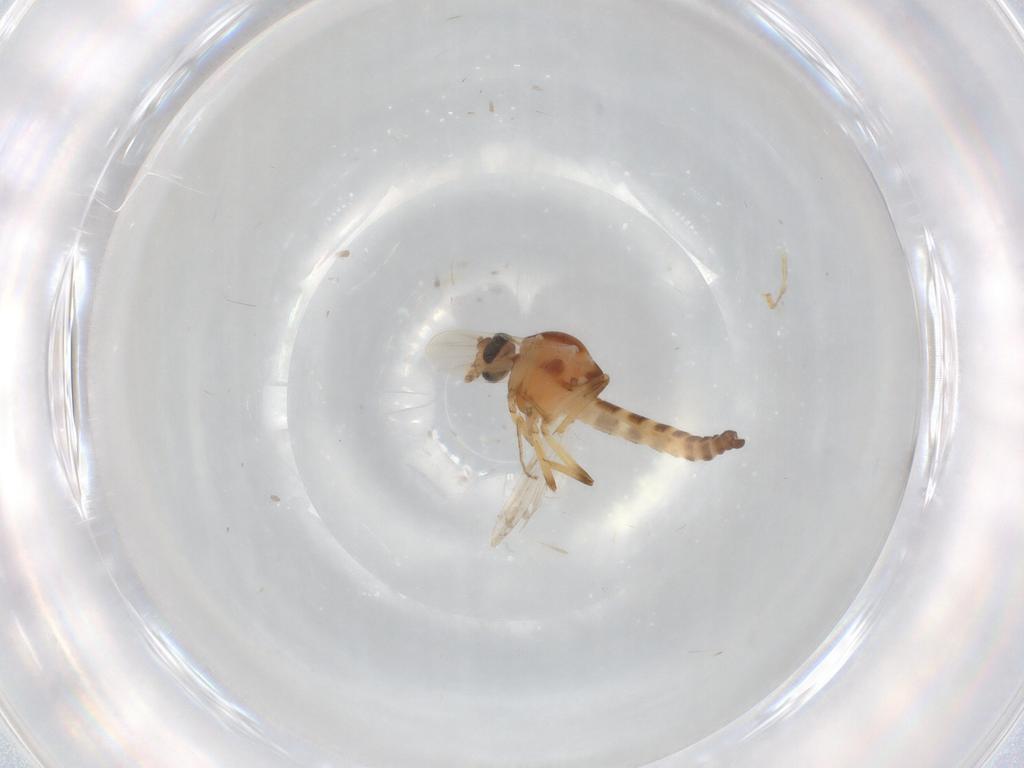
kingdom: Animalia
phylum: Arthropoda
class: Insecta
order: Diptera
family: Ceratopogonidae
